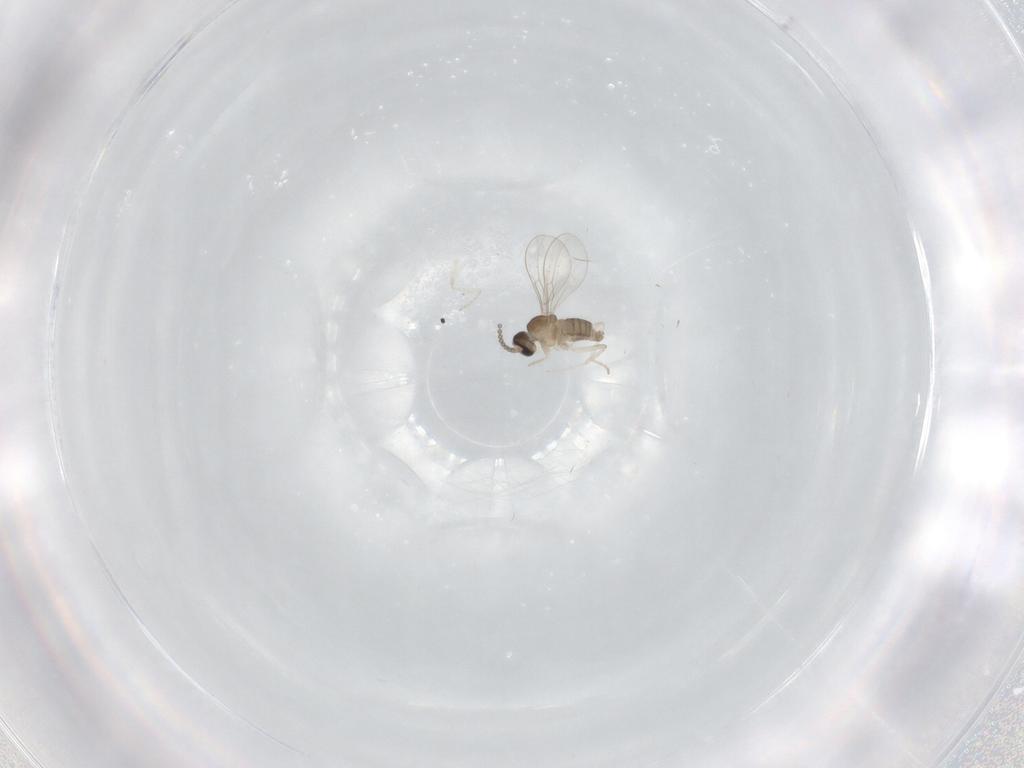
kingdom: Animalia
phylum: Arthropoda
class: Insecta
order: Diptera
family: Cecidomyiidae
